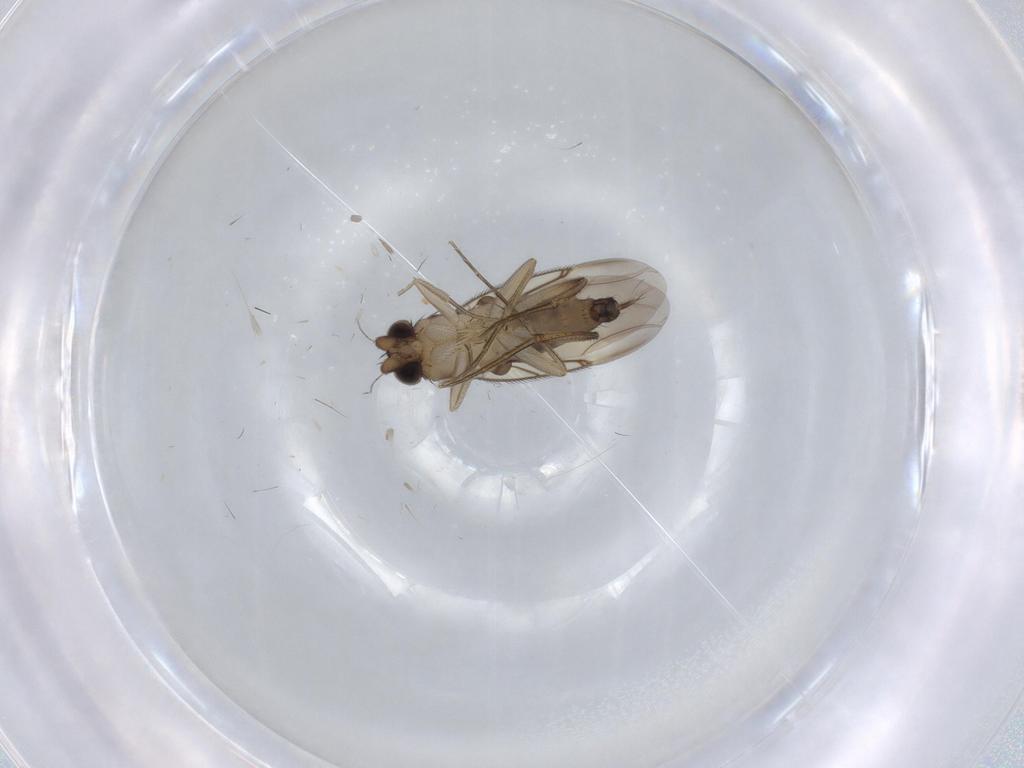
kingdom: Animalia
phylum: Arthropoda
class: Insecta
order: Diptera
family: Phoridae
